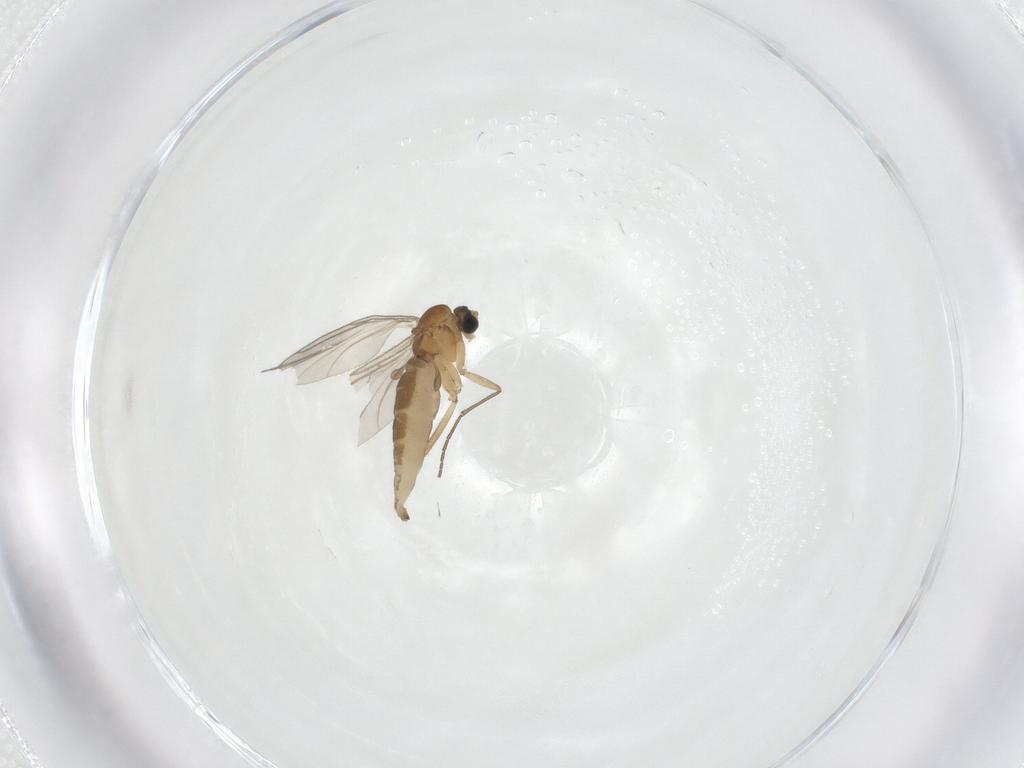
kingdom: Animalia
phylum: Arthropoda
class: Insecta
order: Diptera
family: Sciaridae
